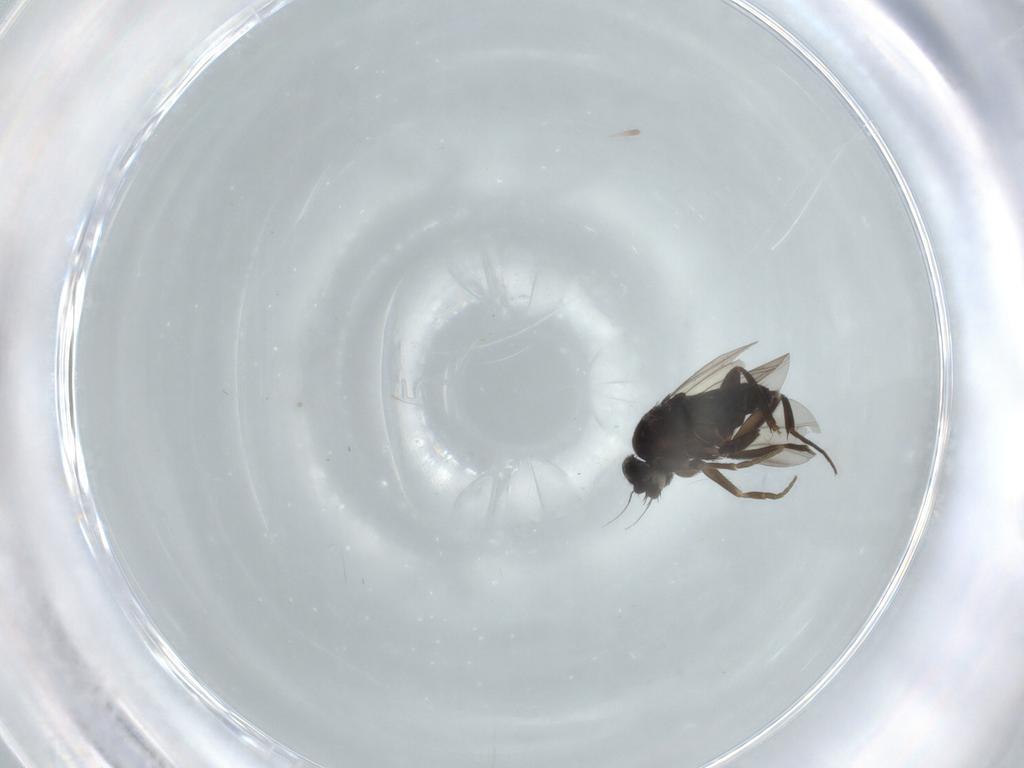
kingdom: Animalia
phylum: Arthropoda
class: Insecta
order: Diptera
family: Phoridae
